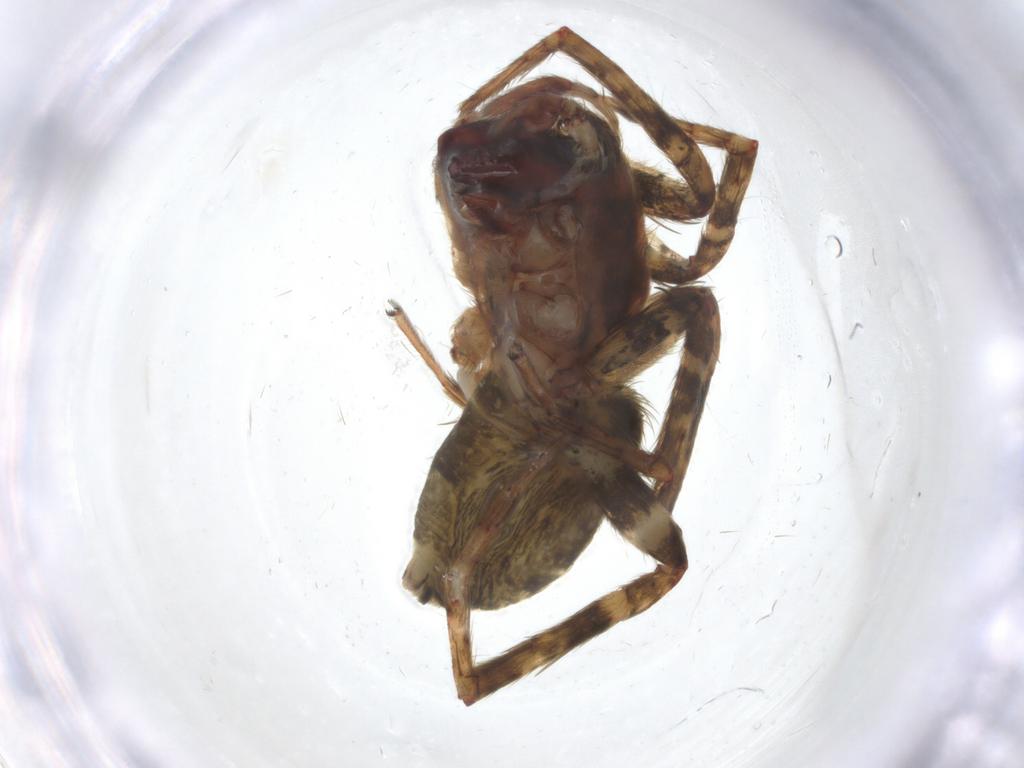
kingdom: Animalia
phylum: Arthropoda
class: Arachnida
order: Araneae
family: Anyphaenidae
